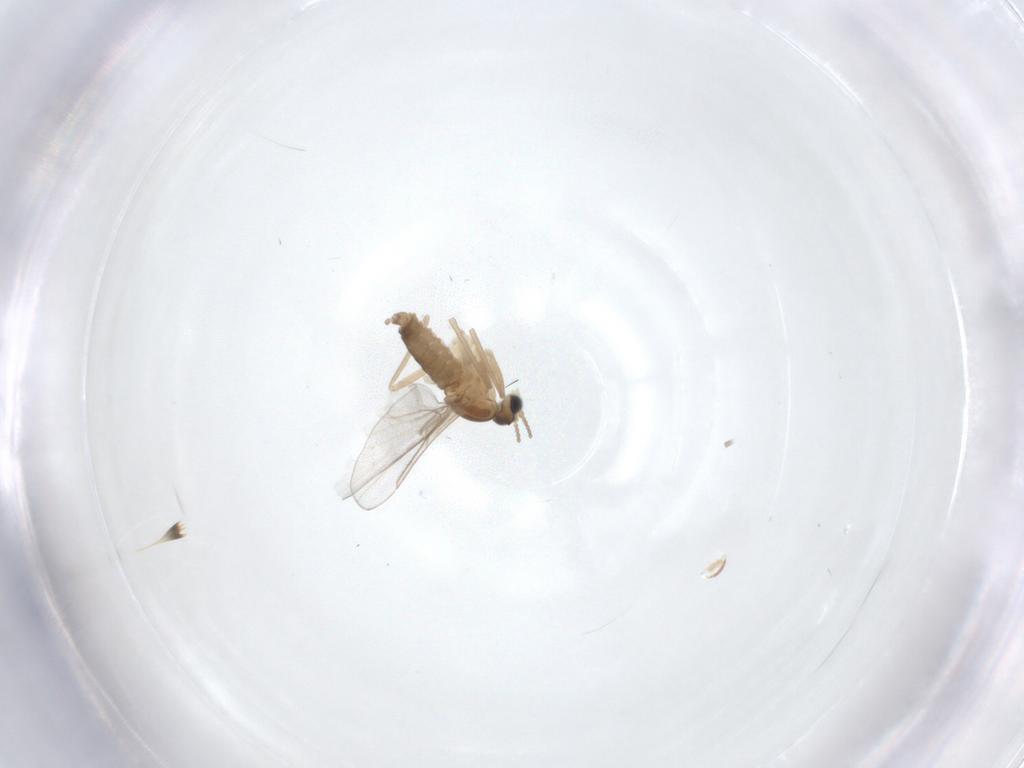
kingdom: Animalia
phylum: Arthropoda
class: Insecta
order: Diptera
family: Cecidomyiidae
